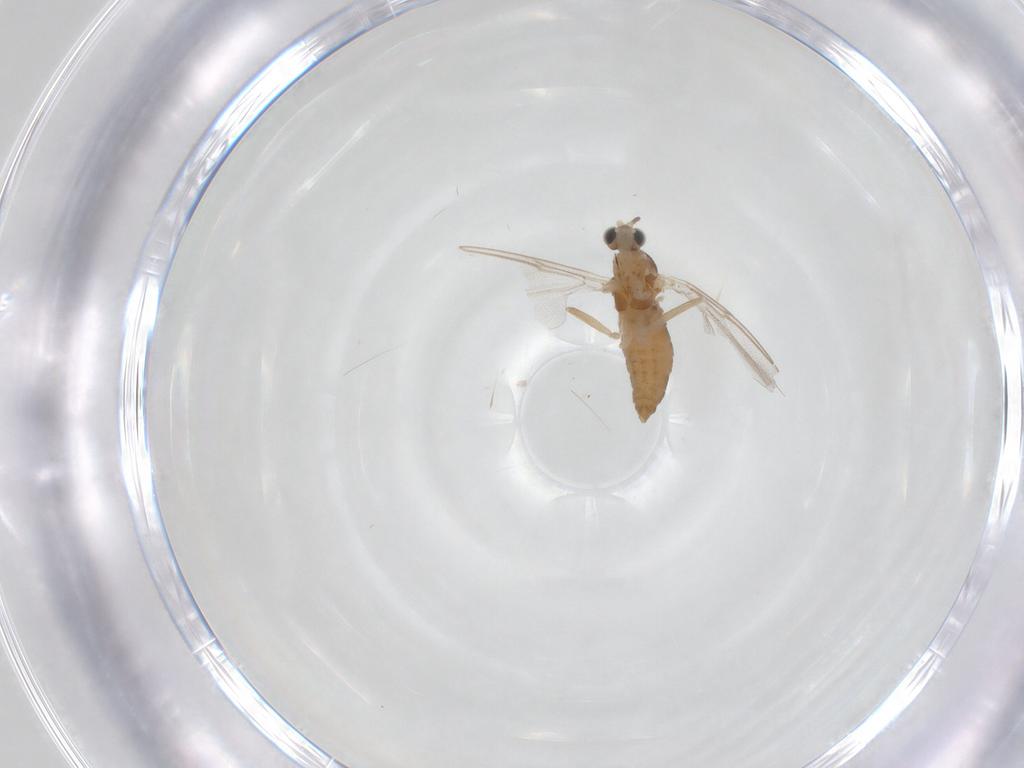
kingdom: Animalia
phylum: Arthropoda
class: Insecta
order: Diptera
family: Cecidomyiidae
